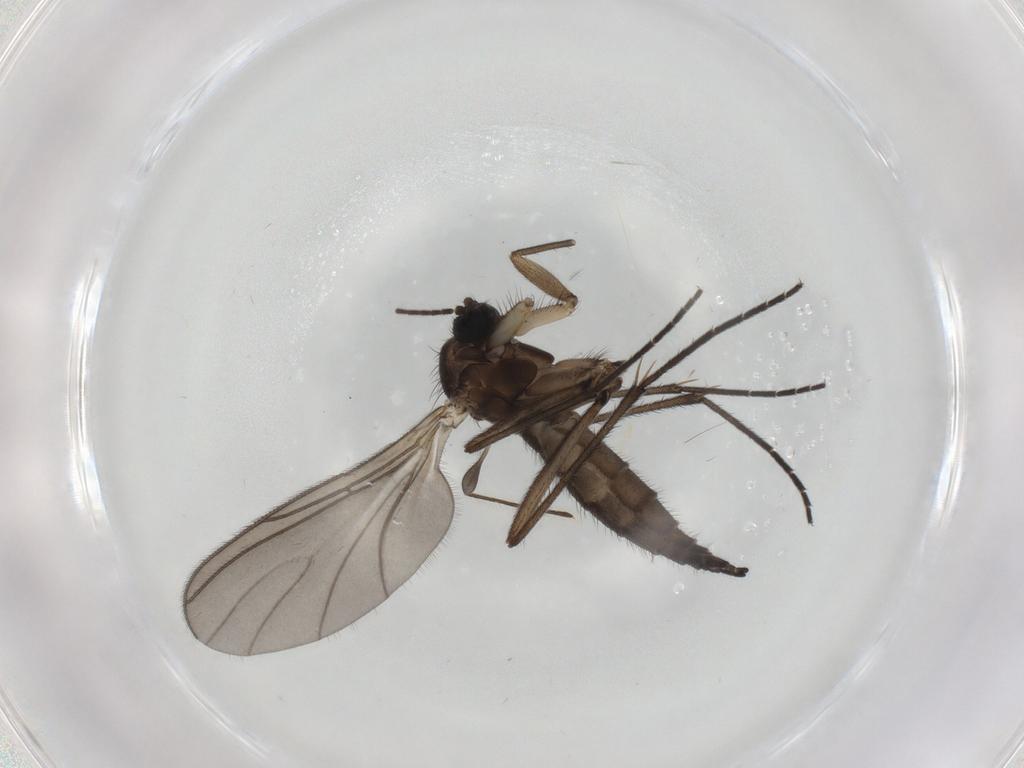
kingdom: Animalia
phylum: Arthropoda
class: Insecta
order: Diptera
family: Sciaridae
